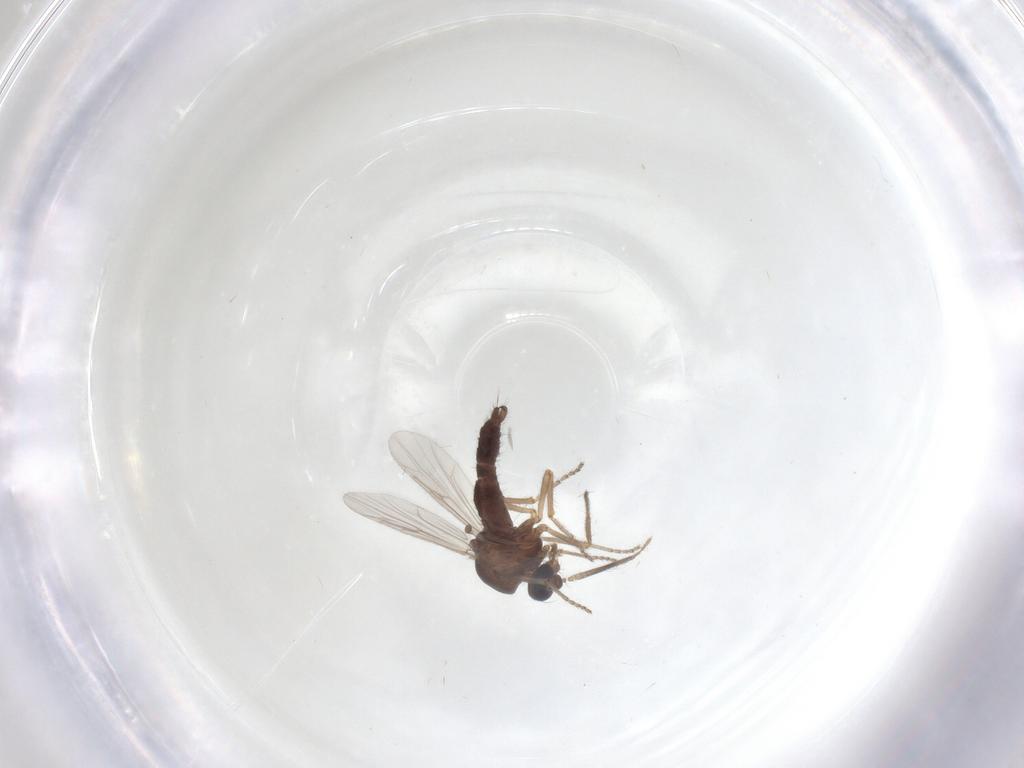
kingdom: Animalia
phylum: Arthropoda
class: Insecta
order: Diptera
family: Ceratopogonidae
